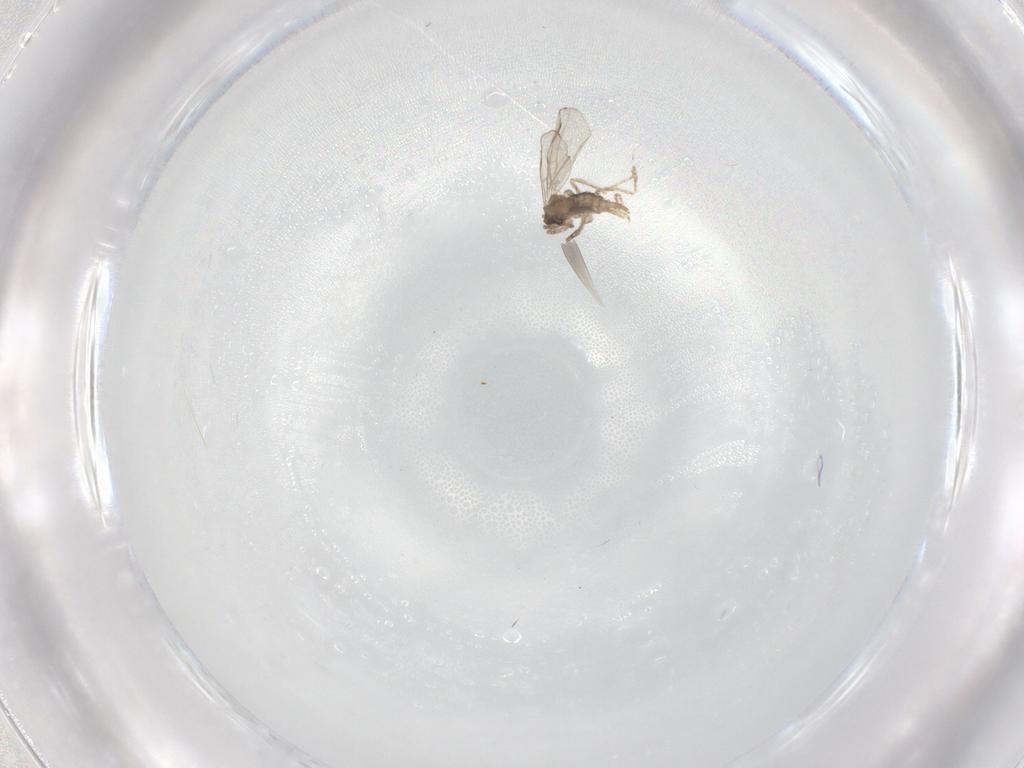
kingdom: Animalia
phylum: Arthropoda
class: Insecta
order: Diptera
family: Cecidomyiidae
